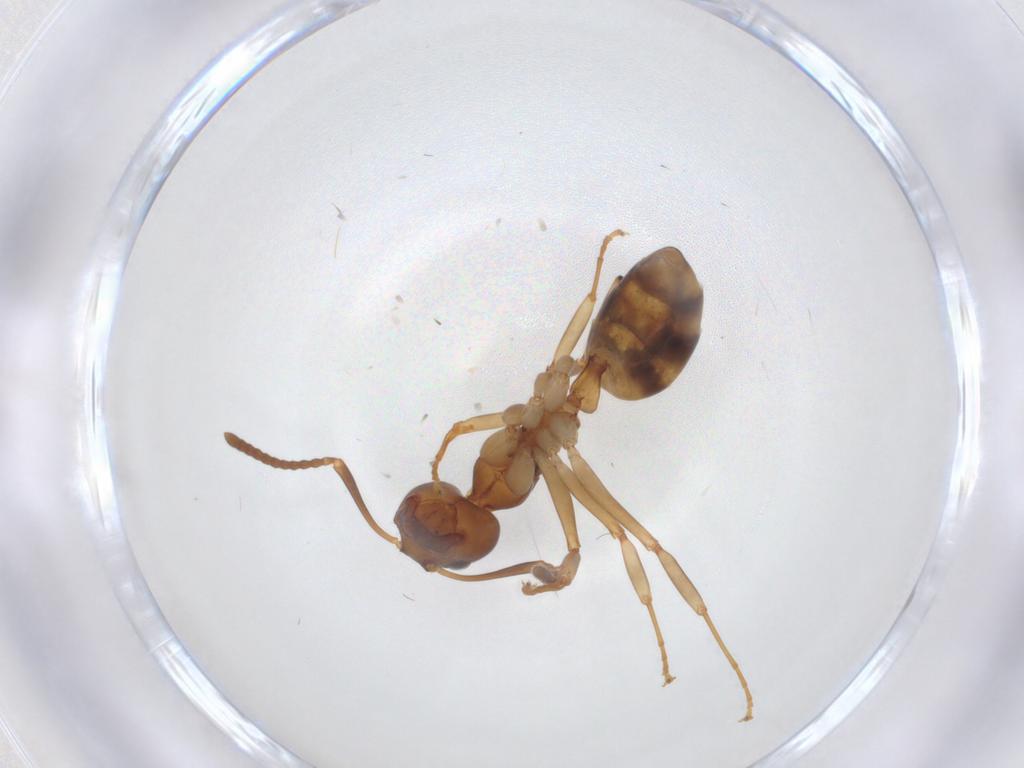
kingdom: Animalia
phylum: Arthropoda
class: Insecta
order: Hymenoptera
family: Formicidae
